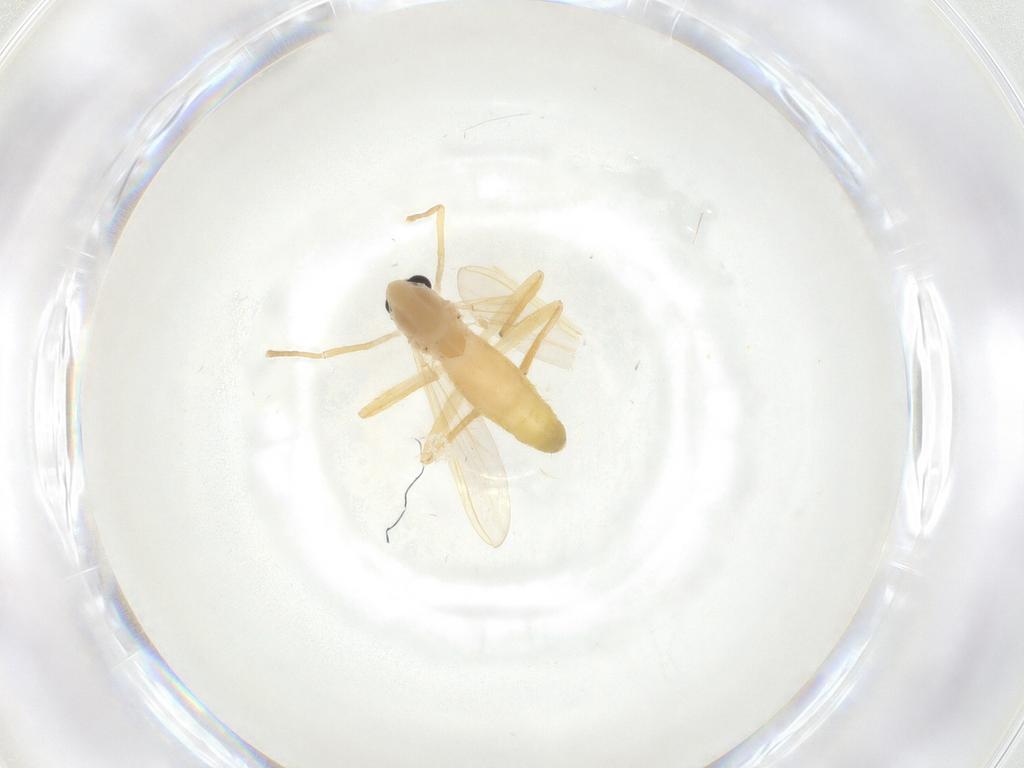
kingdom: Animalia
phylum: Arthropoda
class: Insecta
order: Diptera
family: Chironomidae
